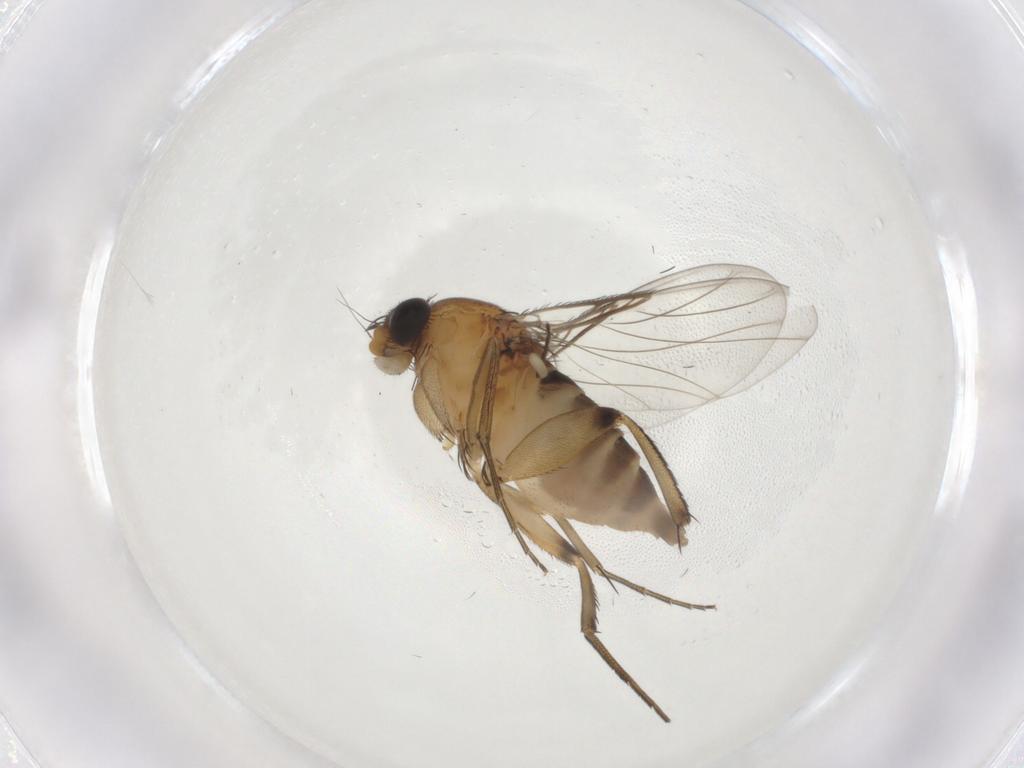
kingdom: Animalia
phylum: Arthropoda
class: Insecta
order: Diptera
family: Phoridae
